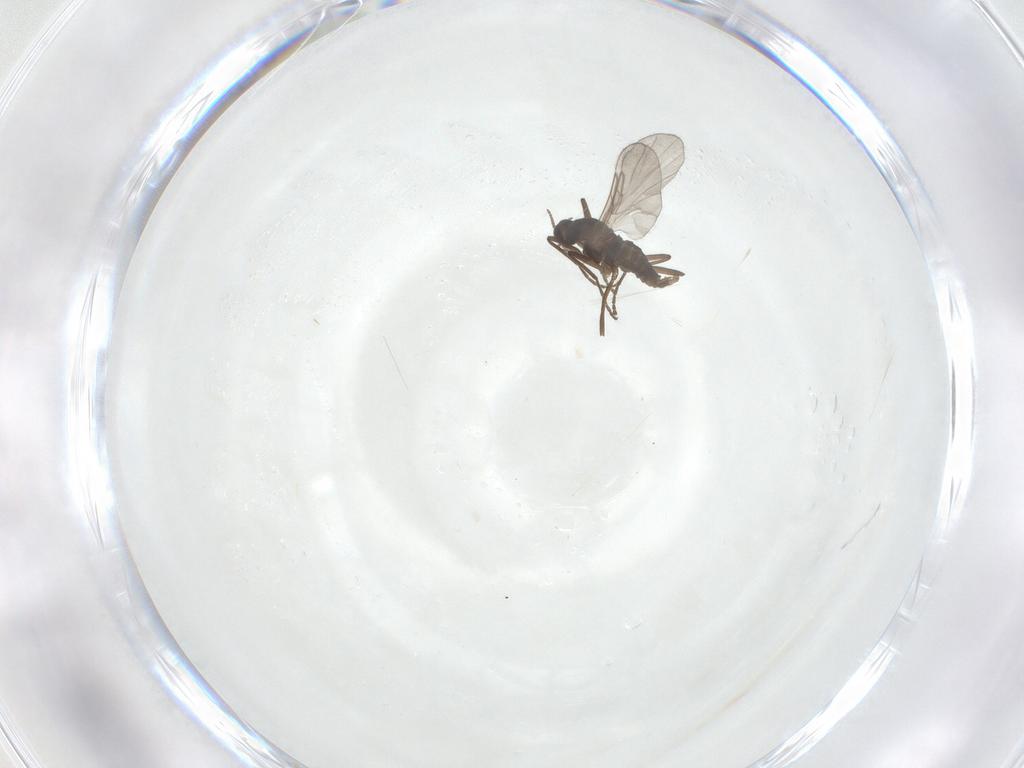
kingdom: Animalia
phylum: Arthropoda
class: Insecta
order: Diptera
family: Cecidomyiidae
